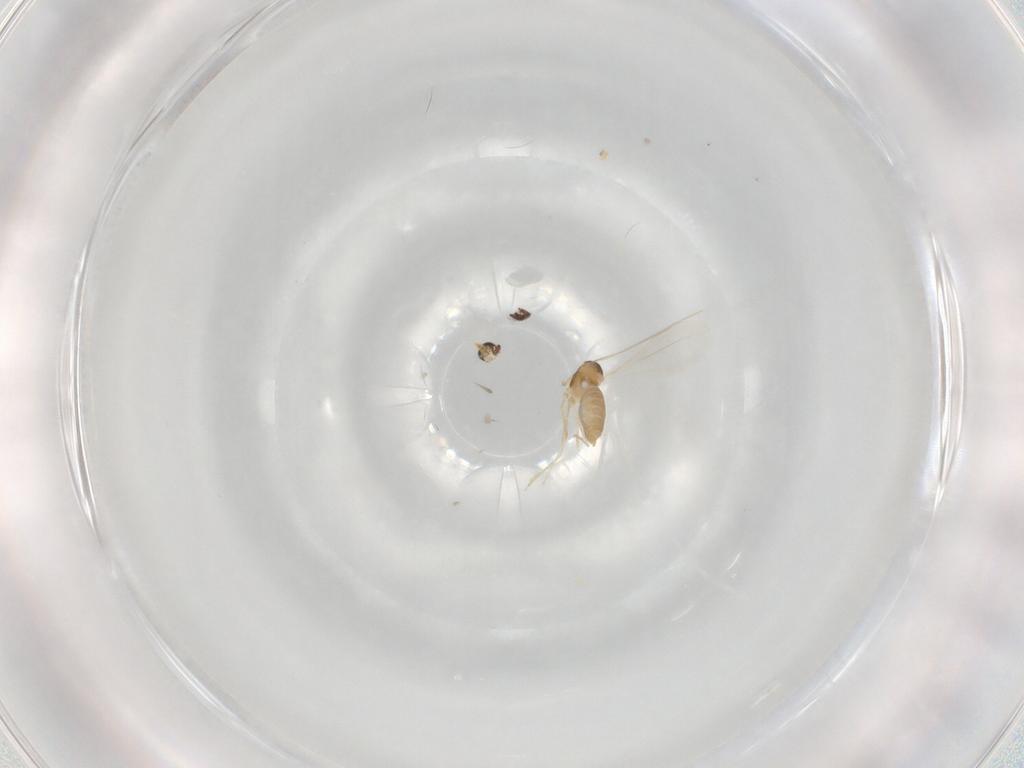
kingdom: Animalia
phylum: Arthropoda
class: Insecta
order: Diptera
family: Cecidomyiidae
